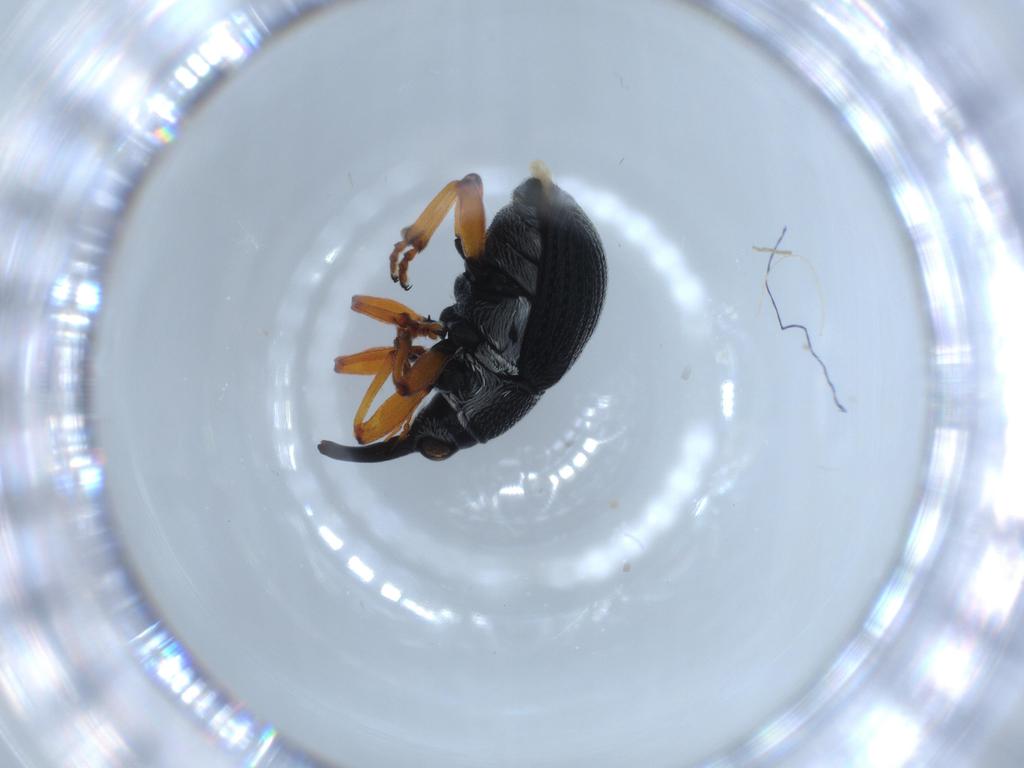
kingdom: Animalia
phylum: Arthropoda
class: Insecta
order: Coleoptera
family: Brentidae
